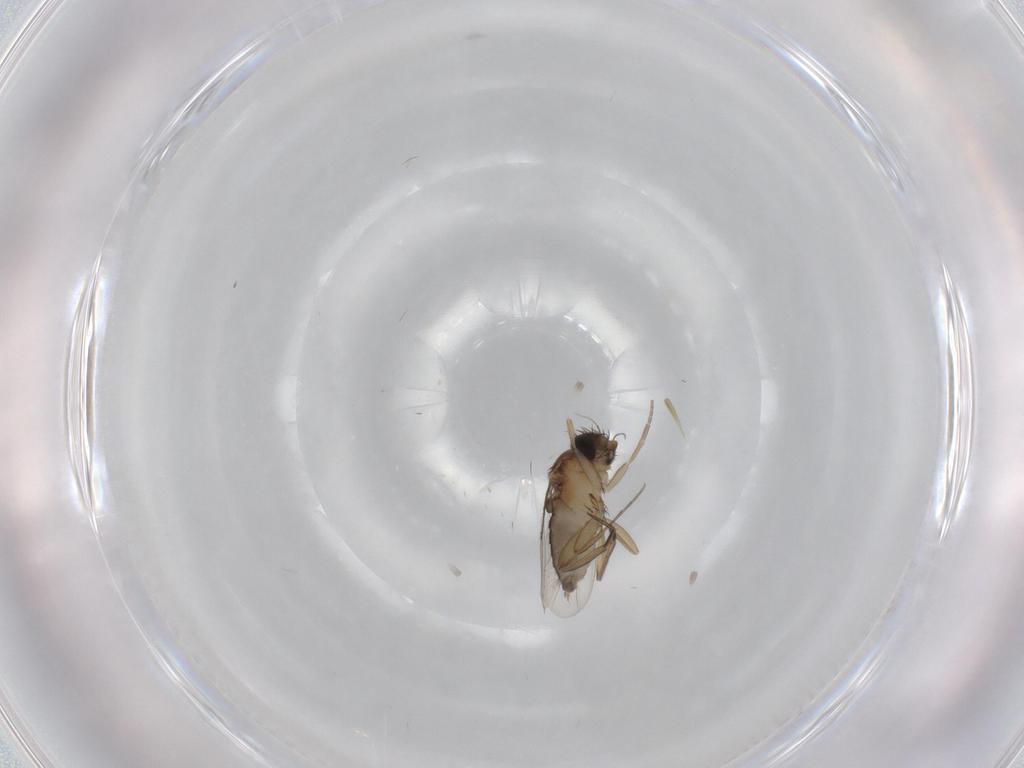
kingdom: Animalia
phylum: Arthropoda
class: Insecta
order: Diptera
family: Phoridae
